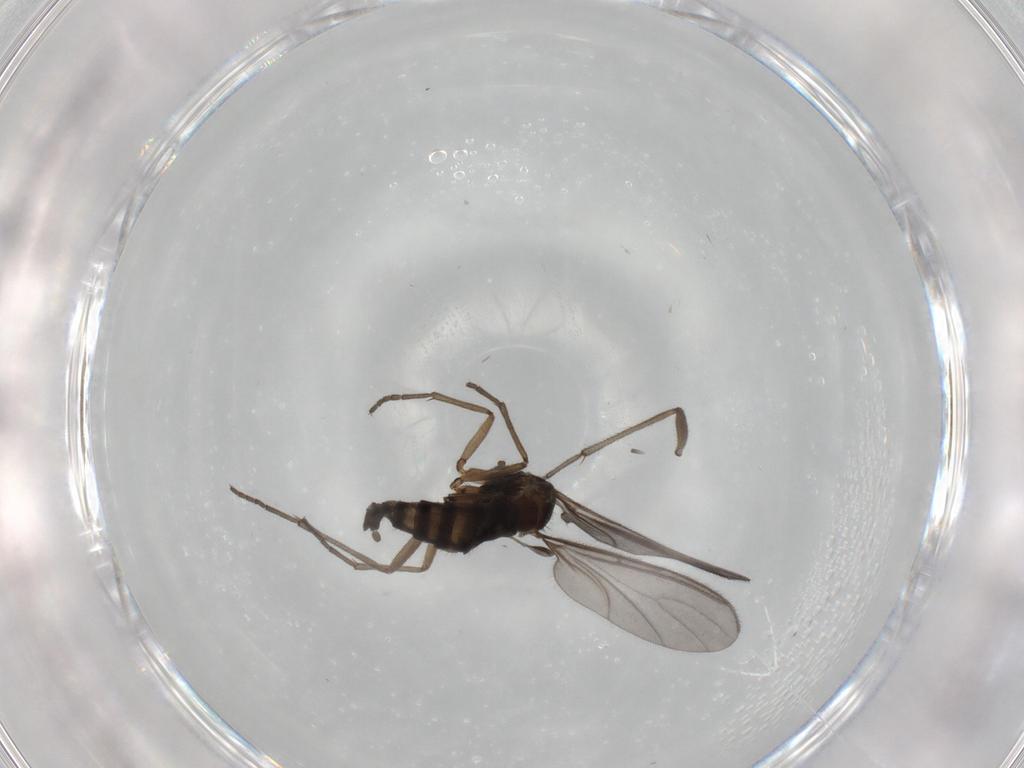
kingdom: Animalia
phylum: Arthropoda
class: Insecta
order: Diptera
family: Sciaridae
